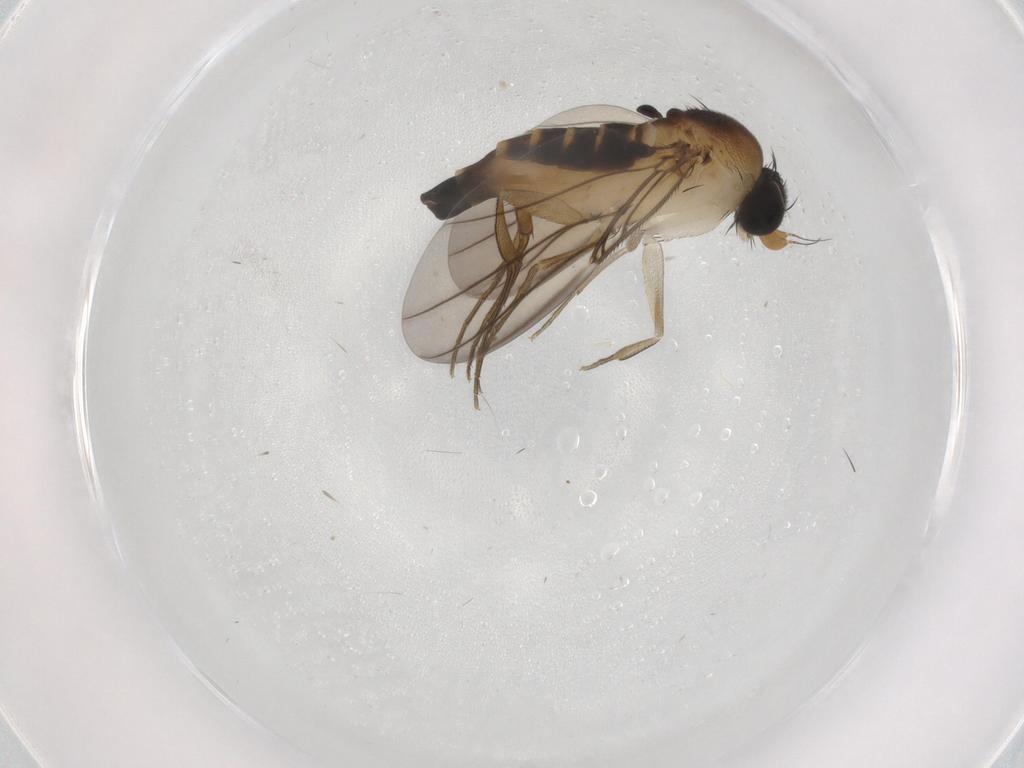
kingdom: Animalia
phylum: Arthropoda
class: Insecta
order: Diptera
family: Phoridae
